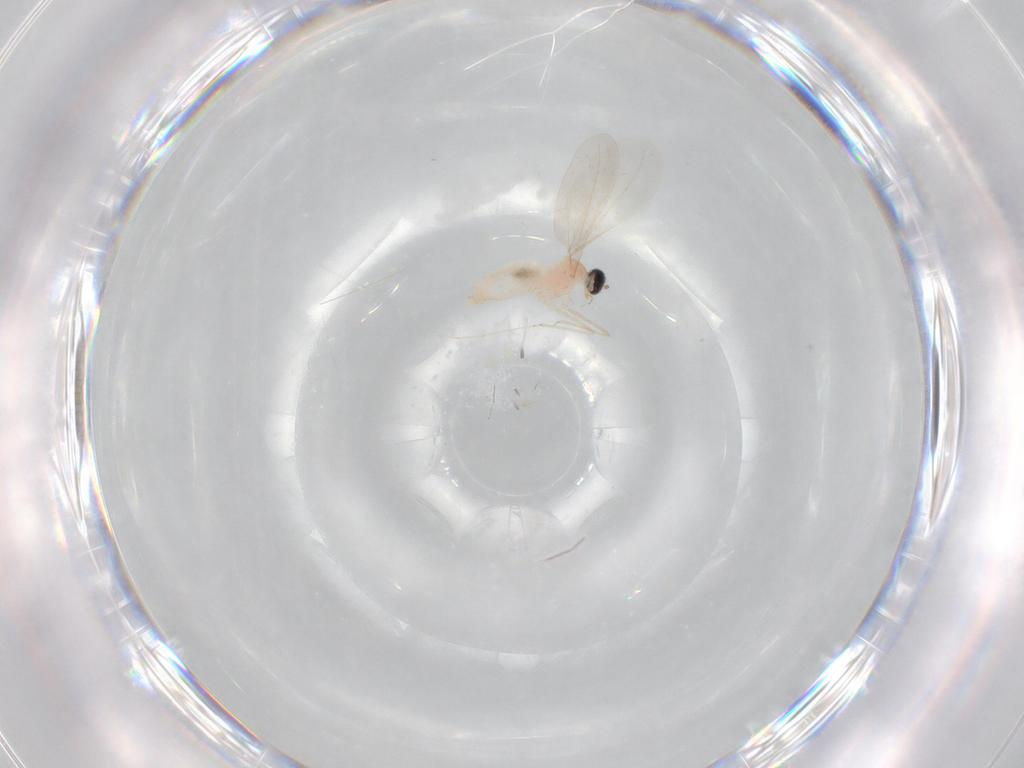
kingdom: Animalia
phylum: Arthropoda
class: Insecta
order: Diptera
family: Cecidomyiidae
